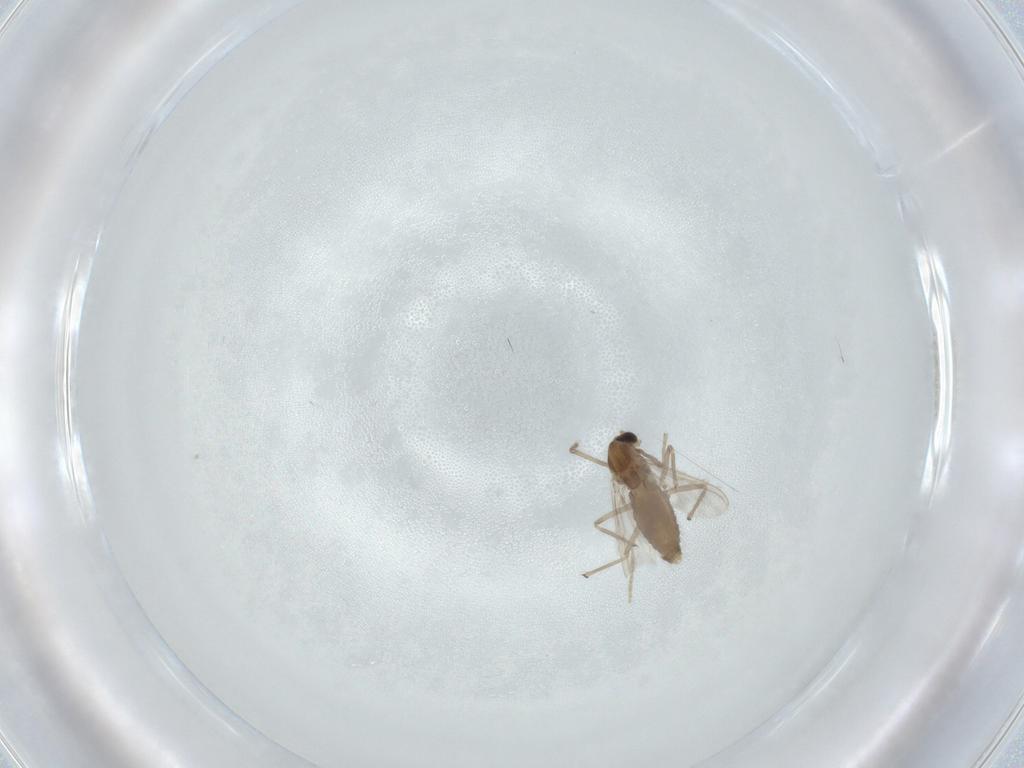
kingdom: Animalia
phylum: Arthropoda
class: Insecta
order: Diptera
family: Chironomidae
